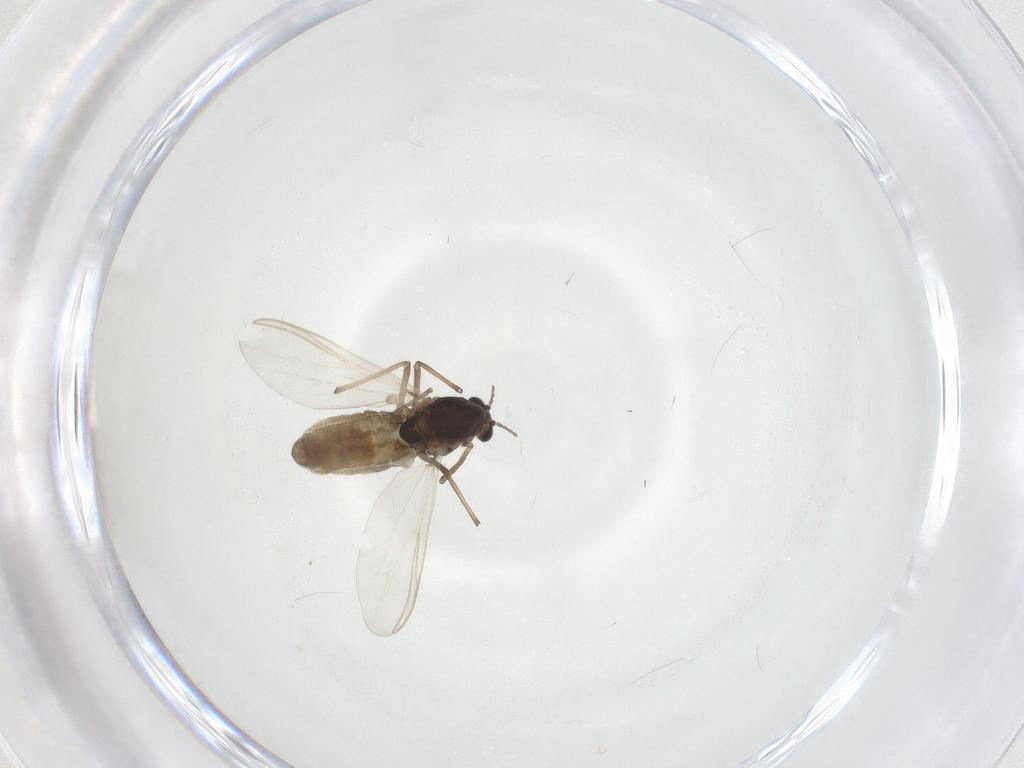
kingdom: Animalia
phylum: Arthropoda
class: Insecta
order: Diptera
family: Chironomidae
